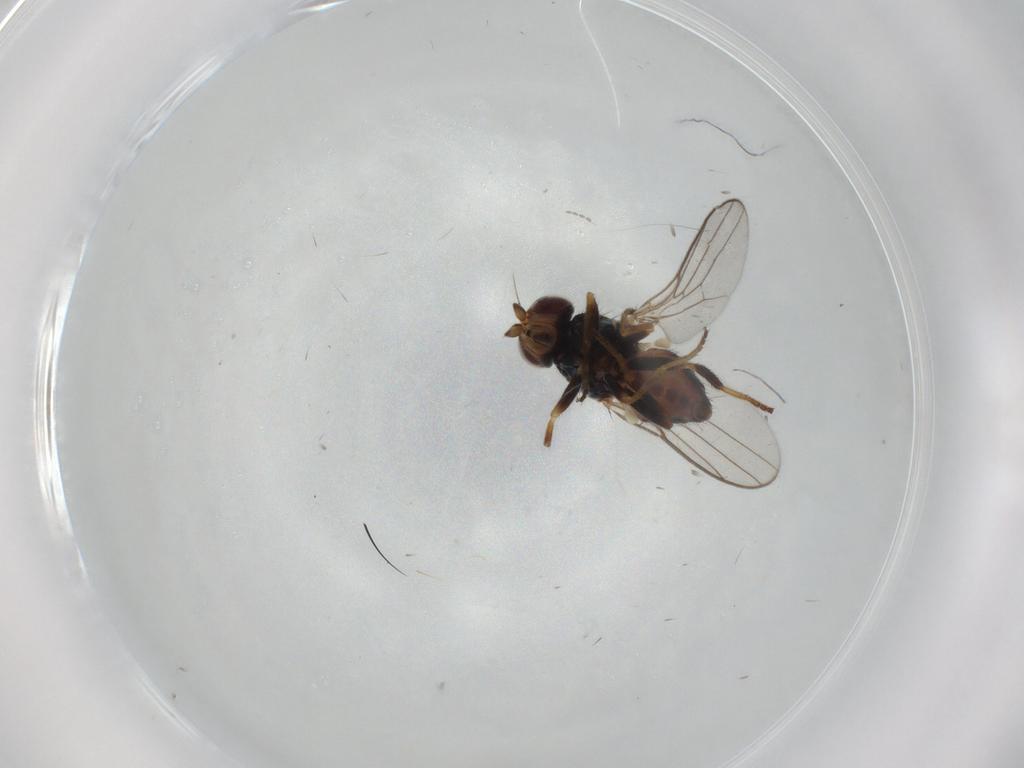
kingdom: Animalia
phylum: Arthropoda
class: Insecta
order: Diptera
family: Chloropidae
